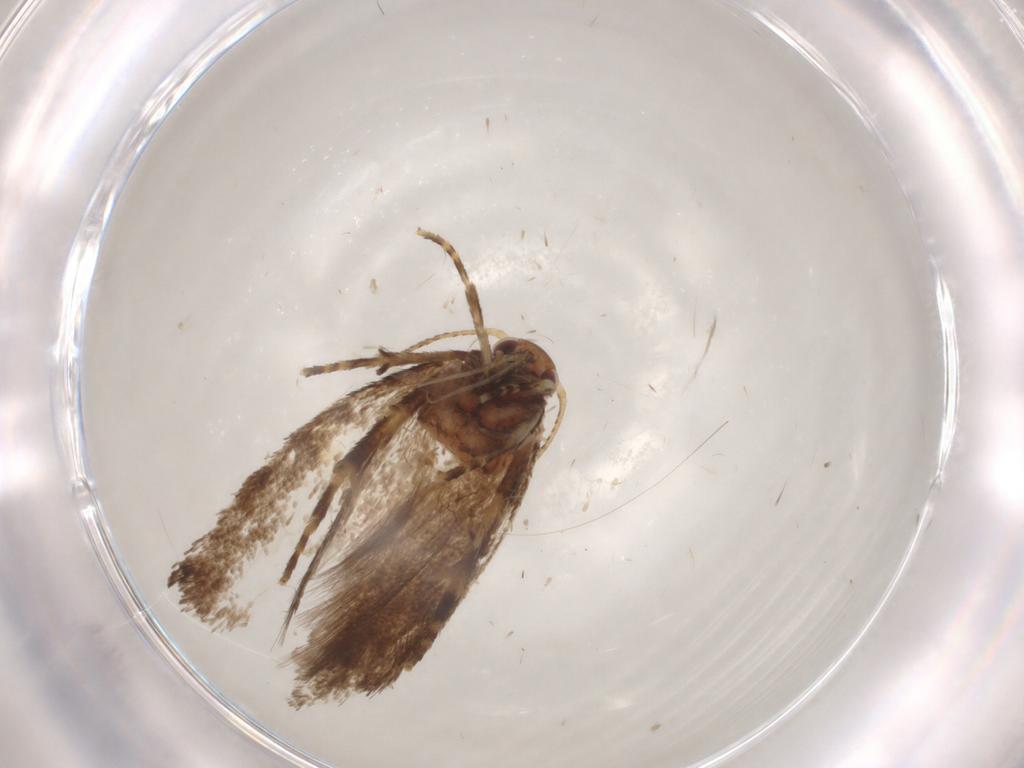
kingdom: Animalia
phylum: Arthropoda
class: Insecta
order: Lepidoptera
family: Oecophoridae
